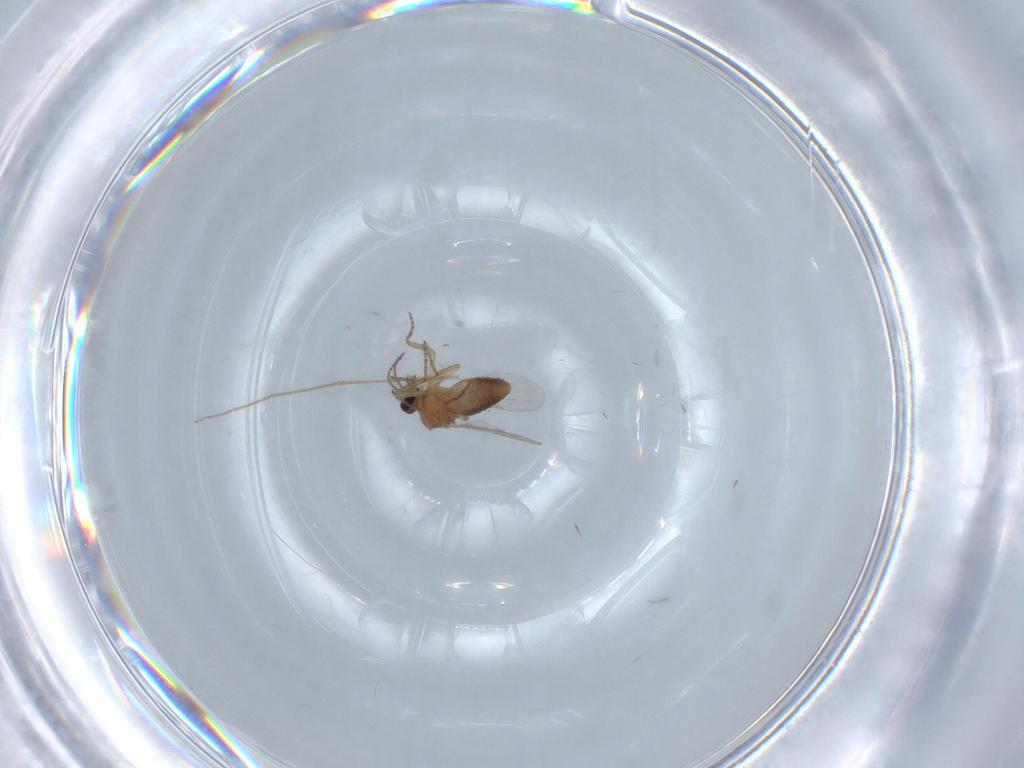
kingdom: Animalia
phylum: Arthropoda
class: Insecta
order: Diptera
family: Ceratopogonidae
